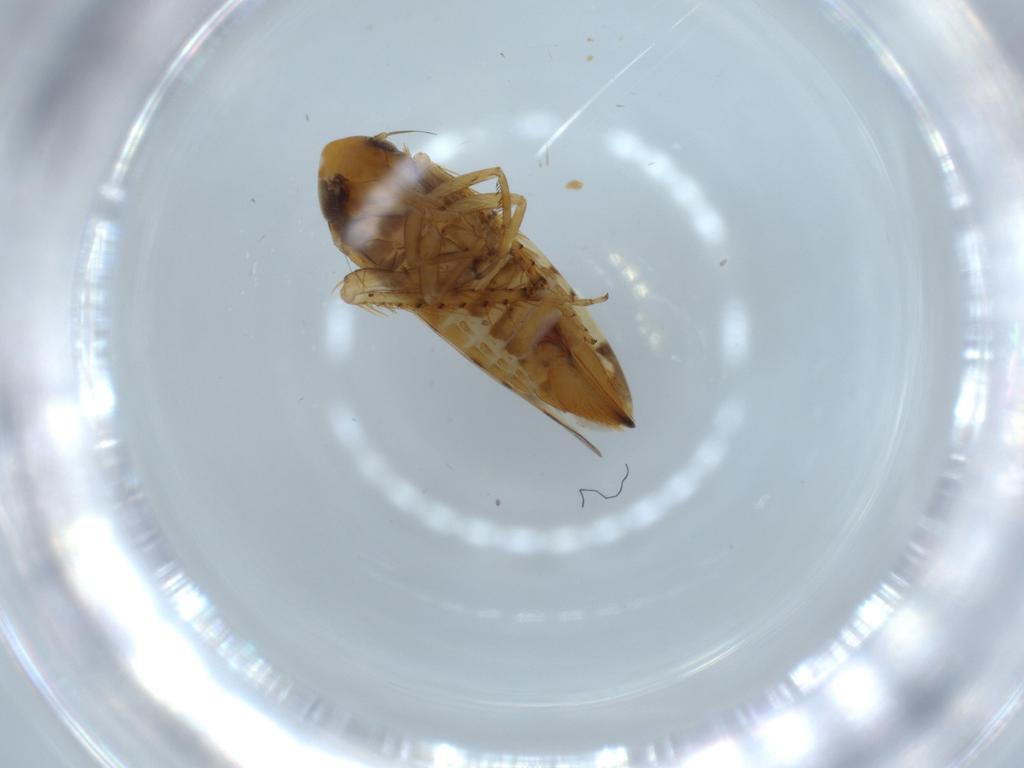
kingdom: Animalia
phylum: Arthropoda
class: Insecta
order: Hemiptera
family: Cicadellidae
